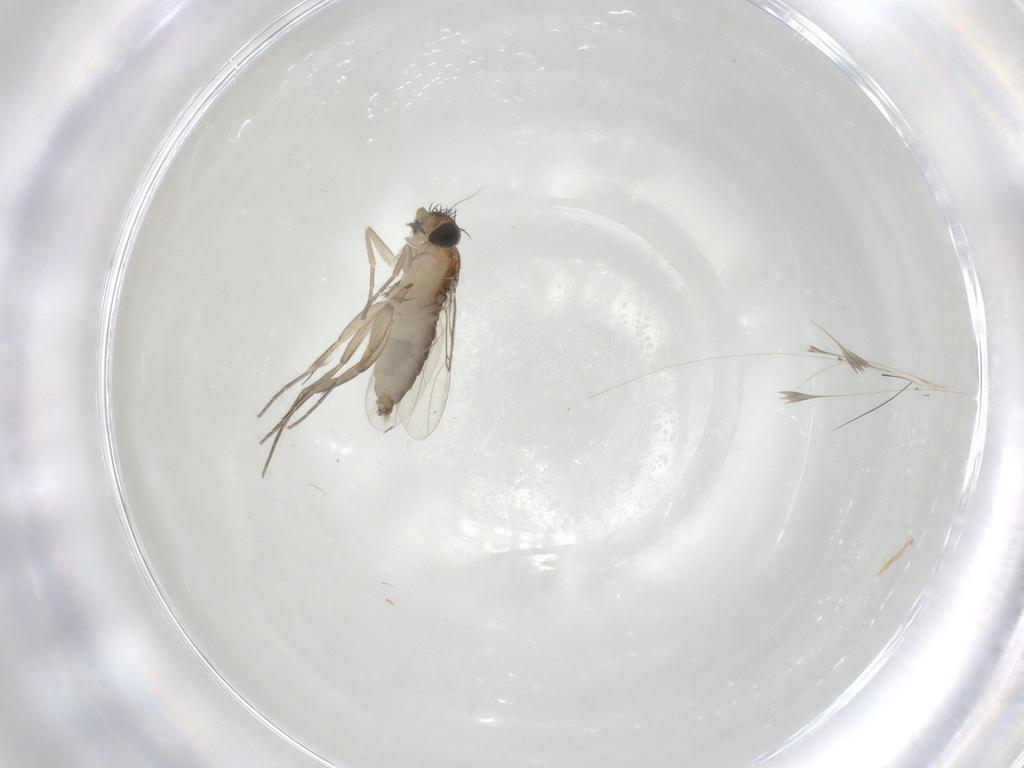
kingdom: Animalia
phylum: Arthropoda
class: Insecta
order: Diptera
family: Phoridae
